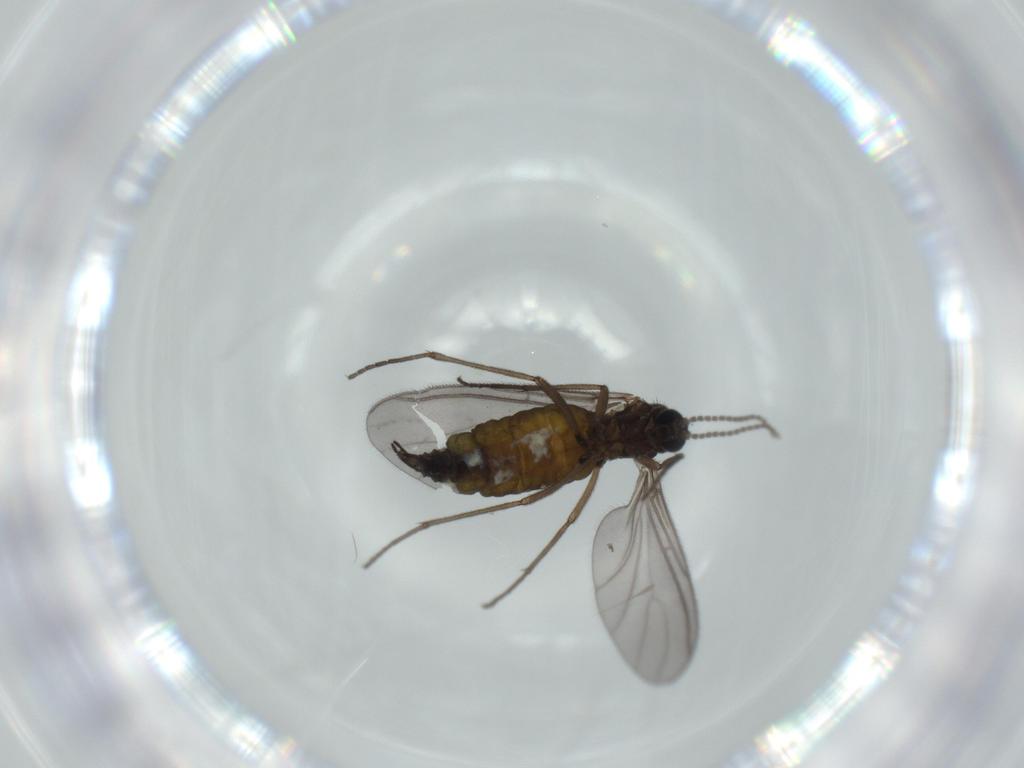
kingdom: Animalia
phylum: Arthropoda
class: Insecta
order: Diptera
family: Sciaridae
